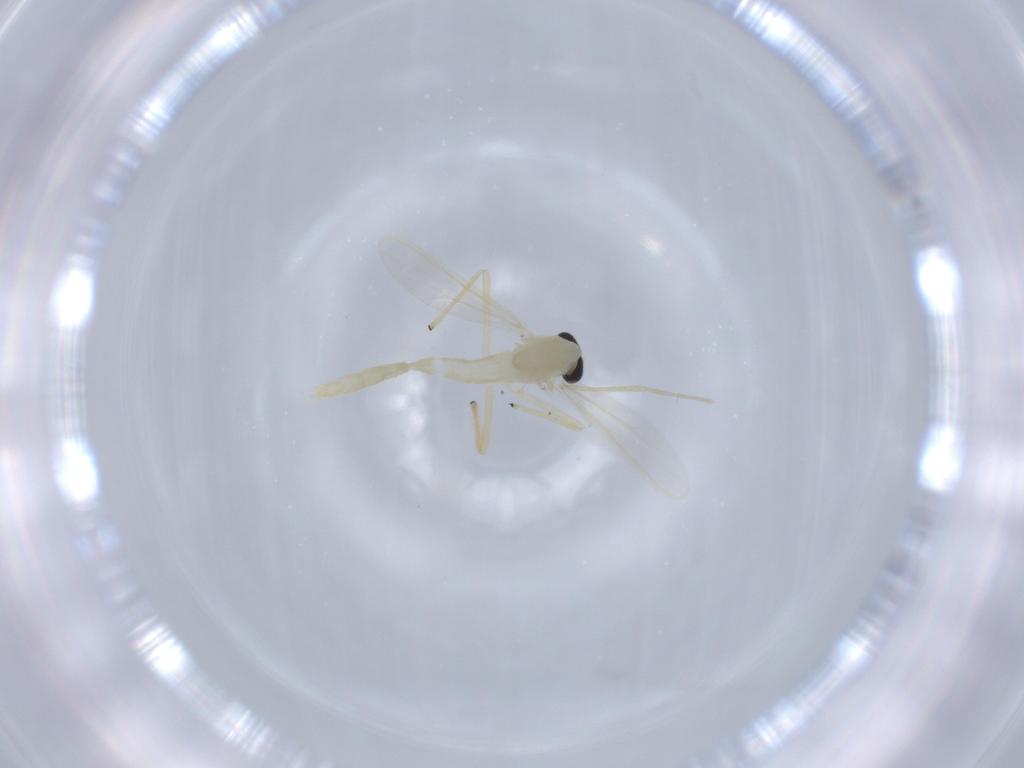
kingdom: Animalia
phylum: Arthropoda
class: Insecta
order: Diptera
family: Chironomidae
